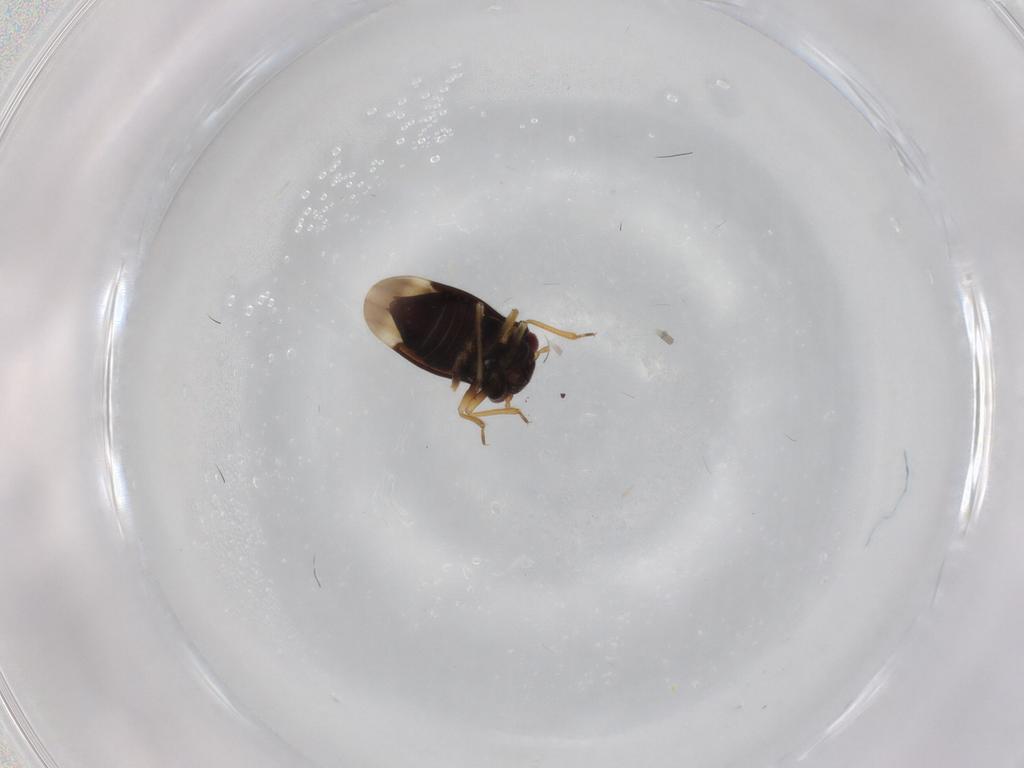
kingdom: Animalia
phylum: Arthropoda
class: Insecta
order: Hemiptera
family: Schizopteridae
